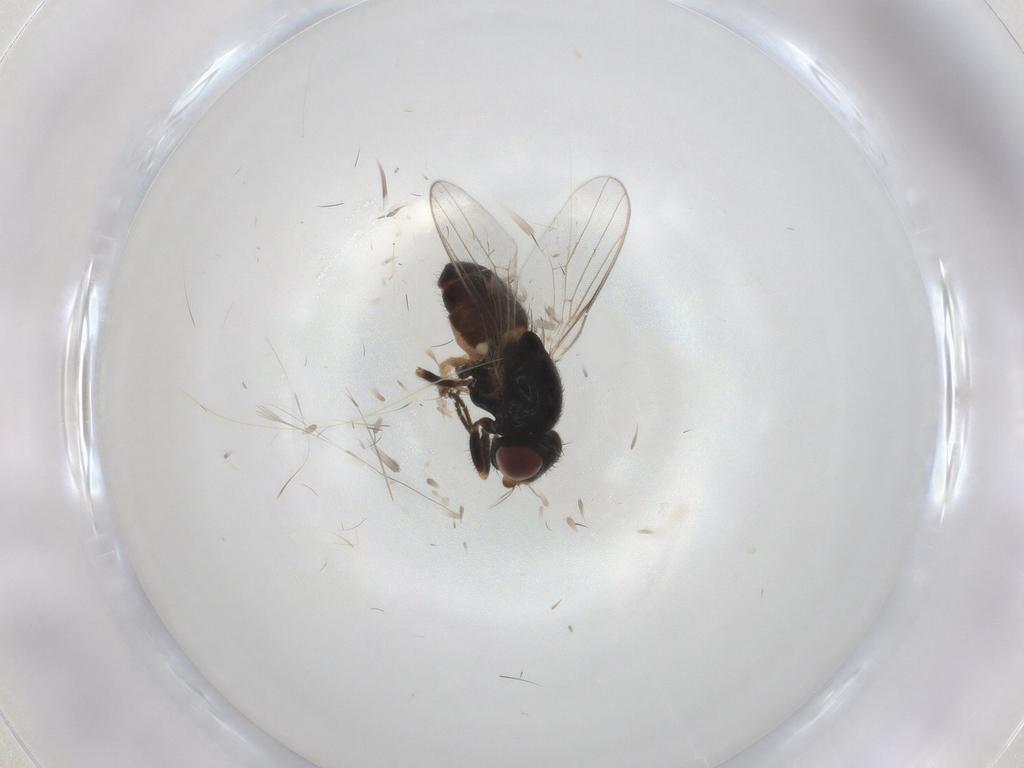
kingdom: Animalia
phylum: Arthropoda
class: Insecta
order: Diptera
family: Chloropidae
